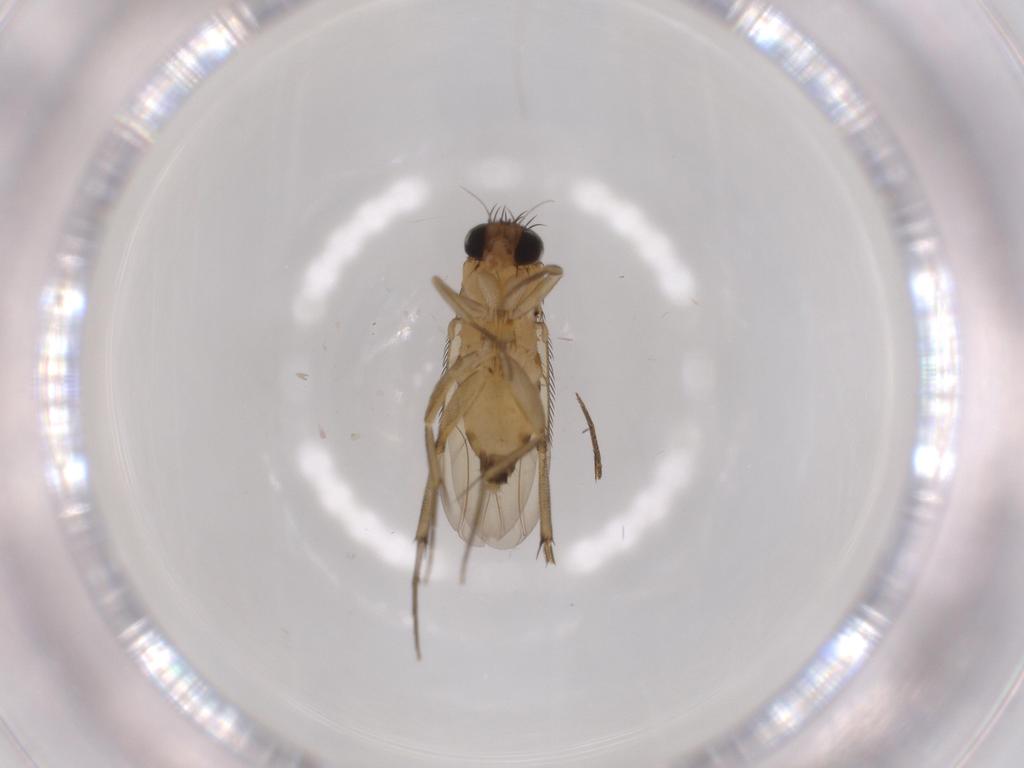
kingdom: Animalia
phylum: Arthropoda
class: Insecta
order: Diptera
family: Phoridae
